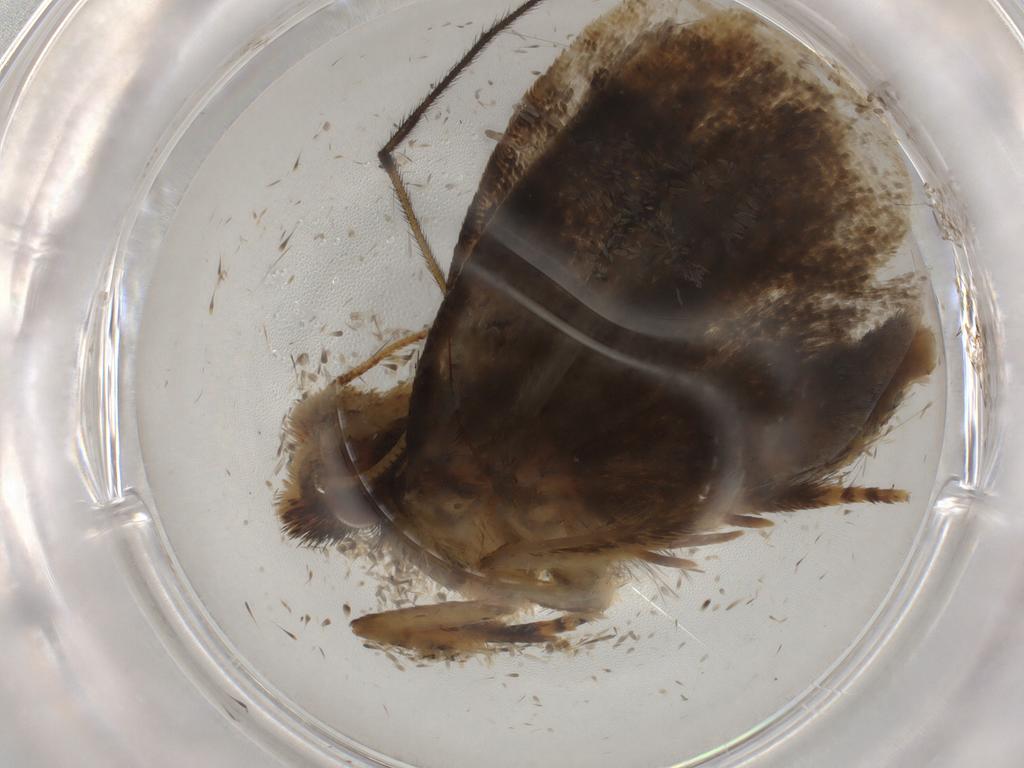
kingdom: Animalia
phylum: Arthropoda
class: Insecta
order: Lepidoptera
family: Tineidae
